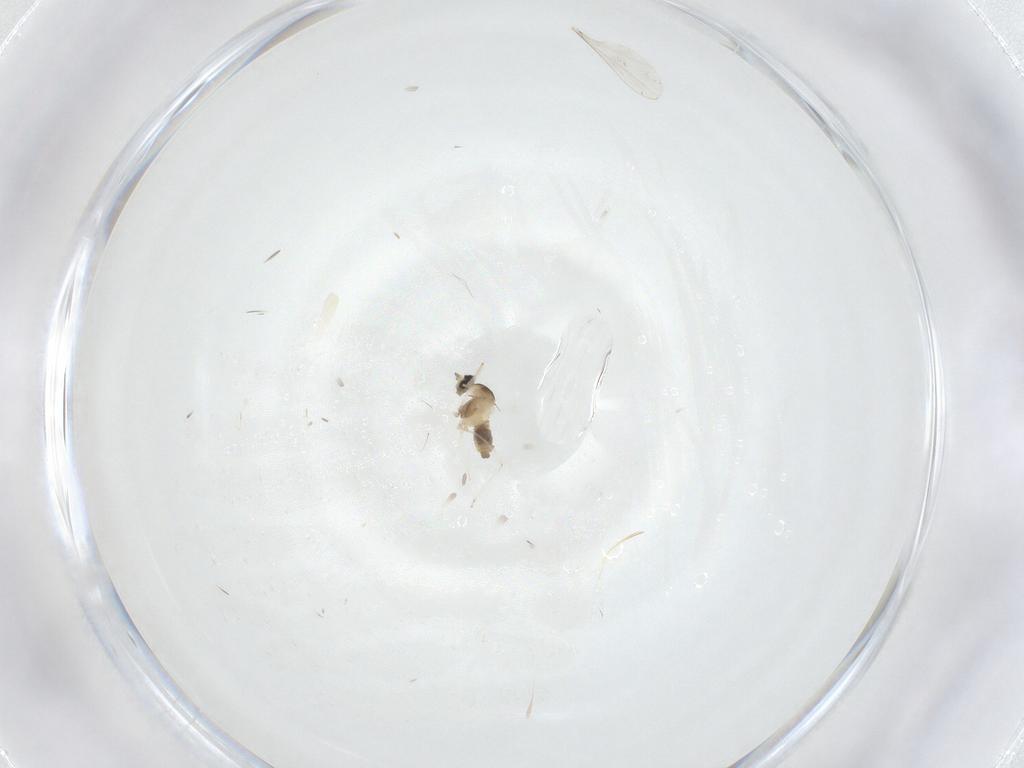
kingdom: Animalia
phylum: Arthropoda
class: Insecta
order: Diptera
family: Cecidomyiidae
